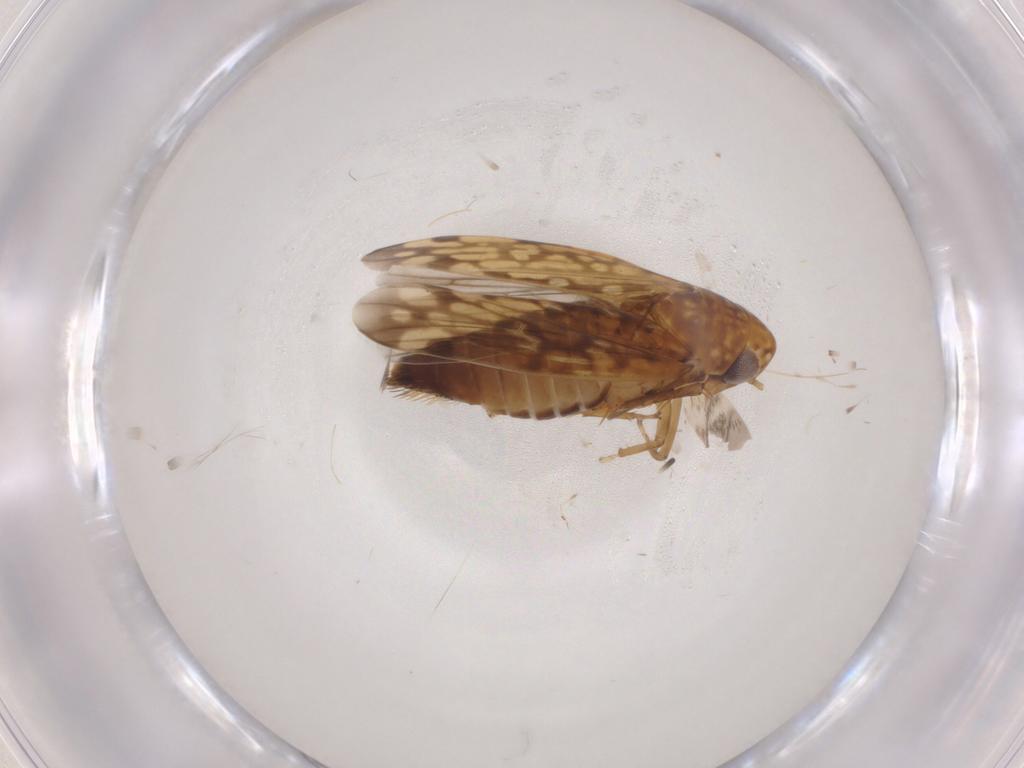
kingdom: Animalia
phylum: Arthropoda
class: Insecta
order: Hemiptera
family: Cicadellidae
